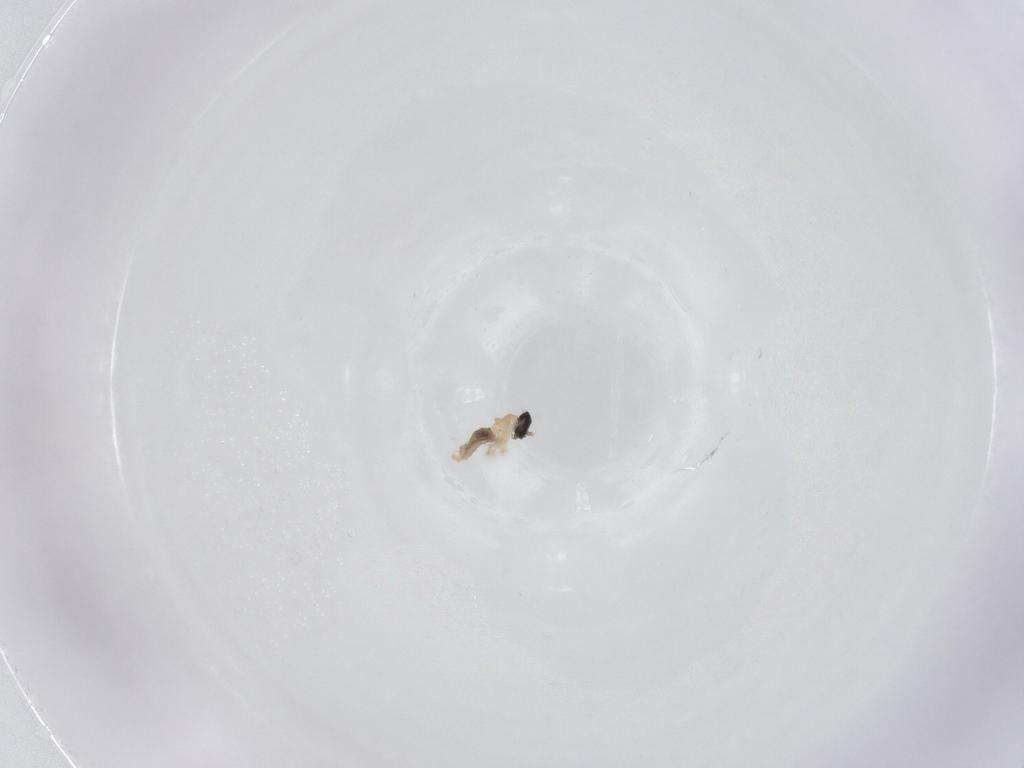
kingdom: Animalia
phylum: Arthropoda
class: Insecta
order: Diptera
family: Cecidomyiidae
